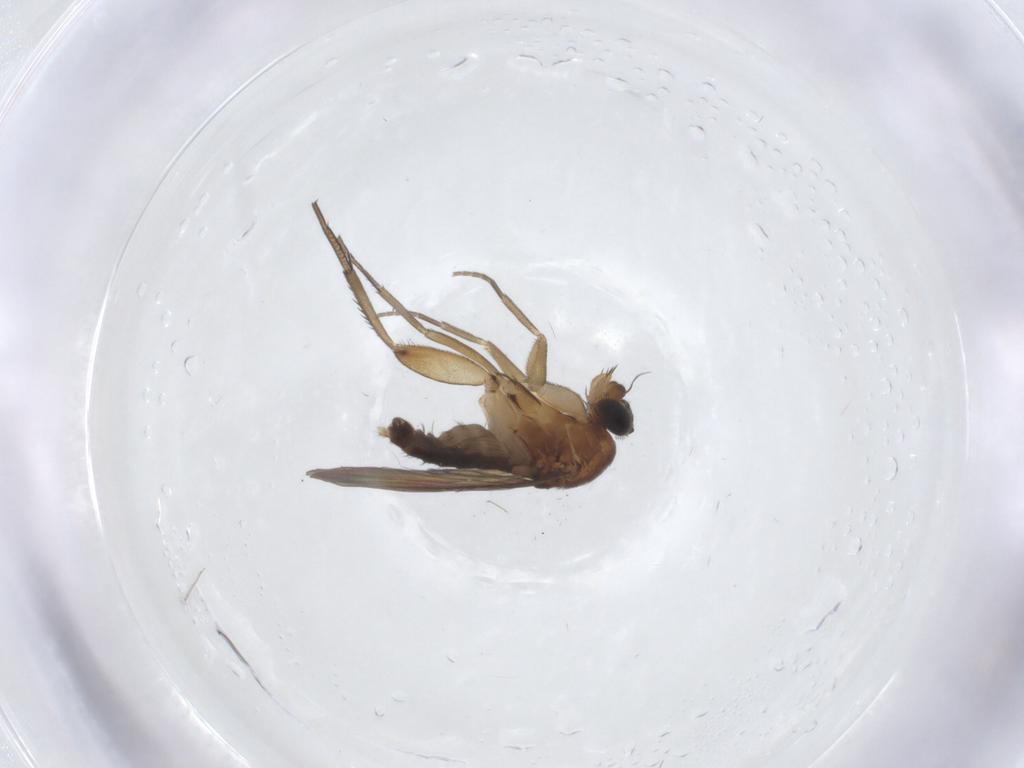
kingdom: Animalia
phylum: Arthropoda
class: Insecta
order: Diptera
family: Phoridae
